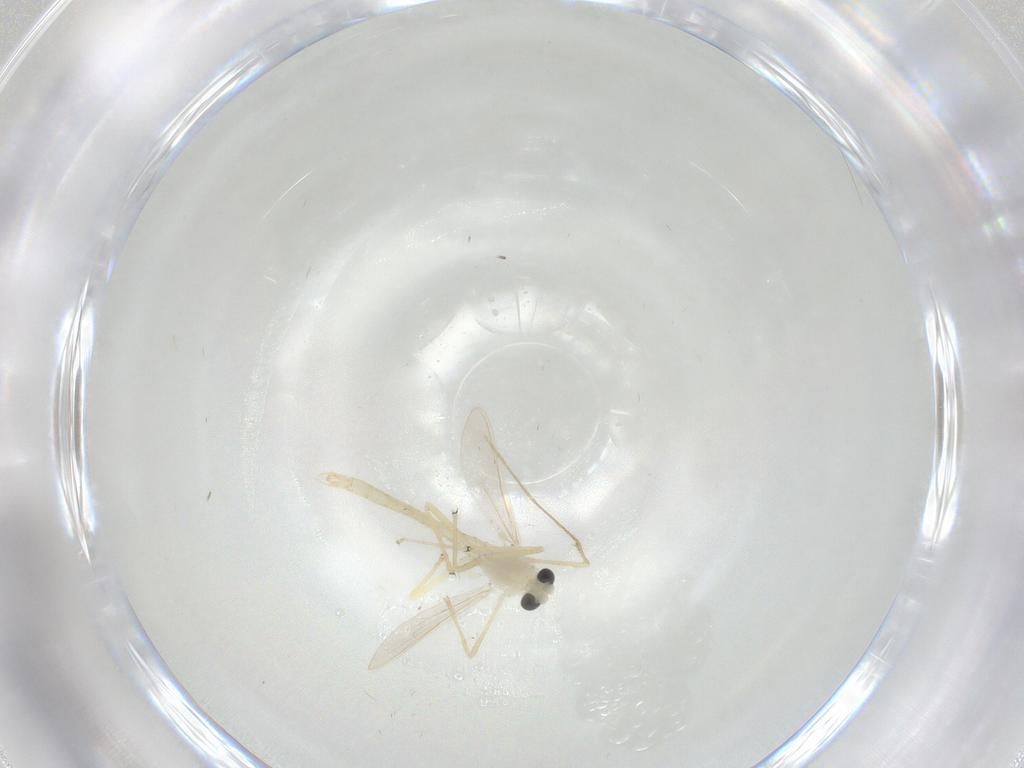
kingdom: Animalia
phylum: Arthropoda
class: Insecta
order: Diptera
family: Chironomidae
